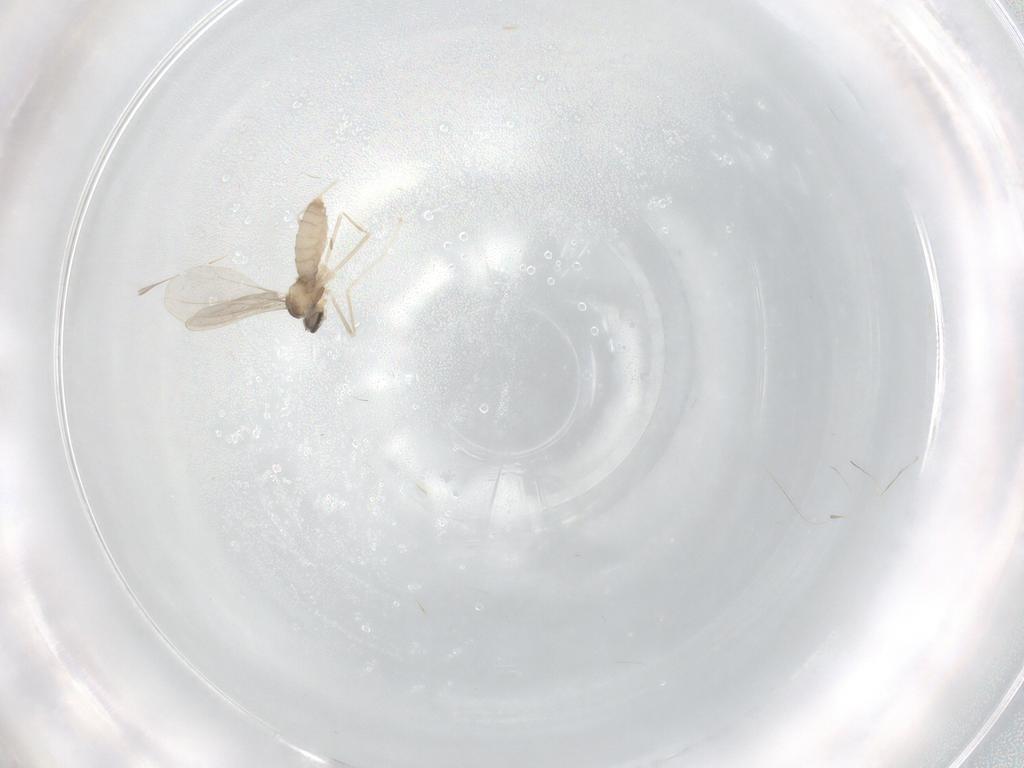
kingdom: Animalia
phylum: Arthropoda
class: Insecta
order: Diptera
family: Cecidomyiidae
